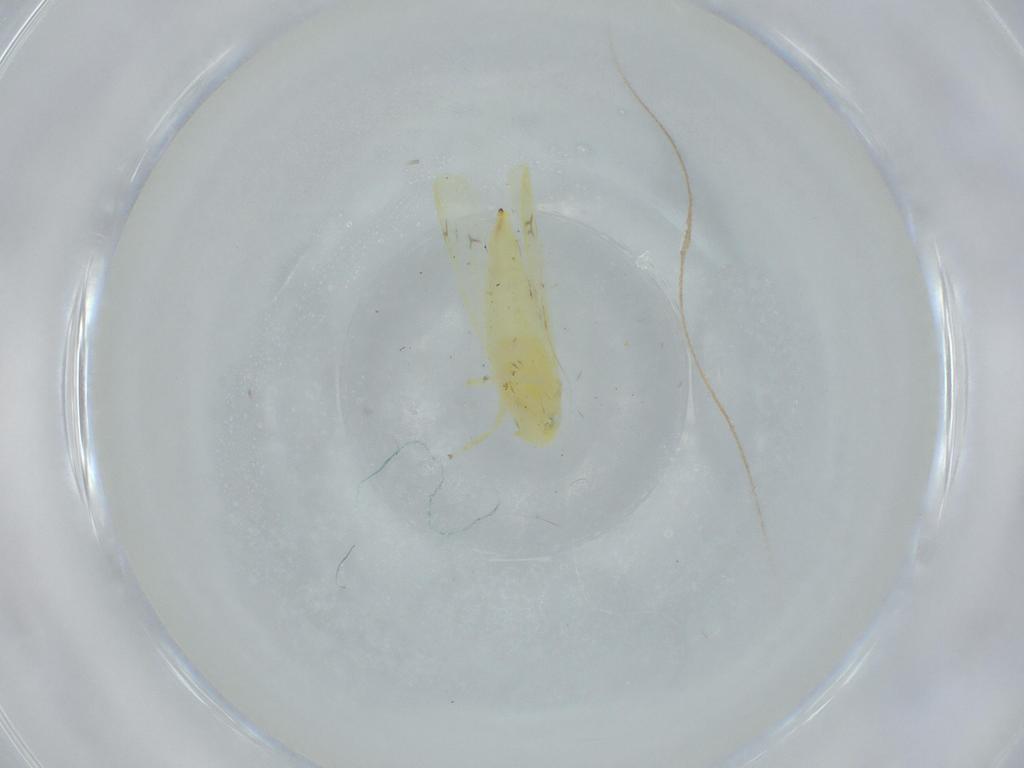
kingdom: Animalia
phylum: Arthropoda
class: Insecta
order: Hemiptera
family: Cicadellidae
